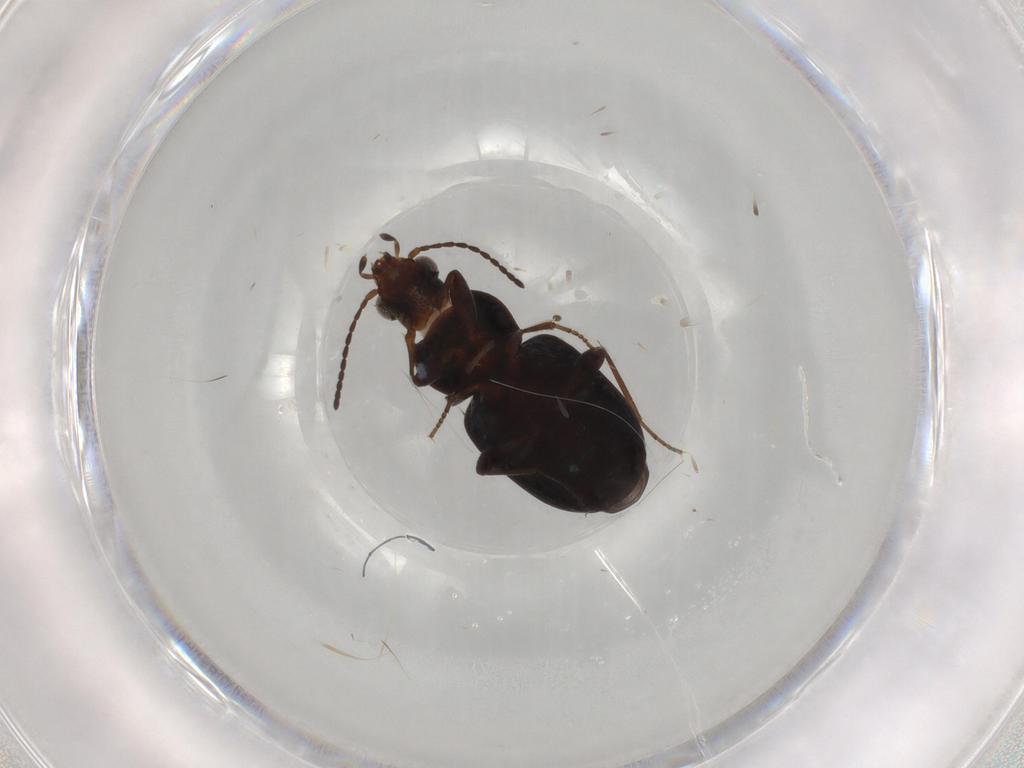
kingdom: Animalia
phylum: Arthropoda
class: Insecta
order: Coleoptera
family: Carabidae
